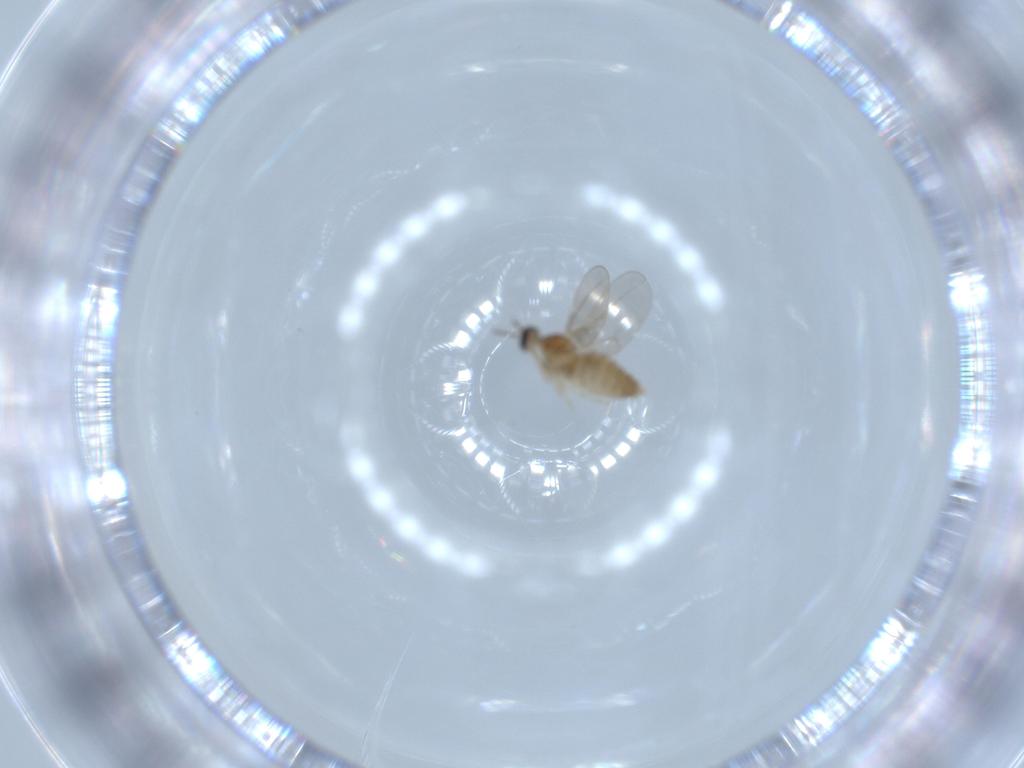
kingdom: Animalia
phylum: Arthropoda
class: Insecta
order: Diptera
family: Cecidomyiidae
